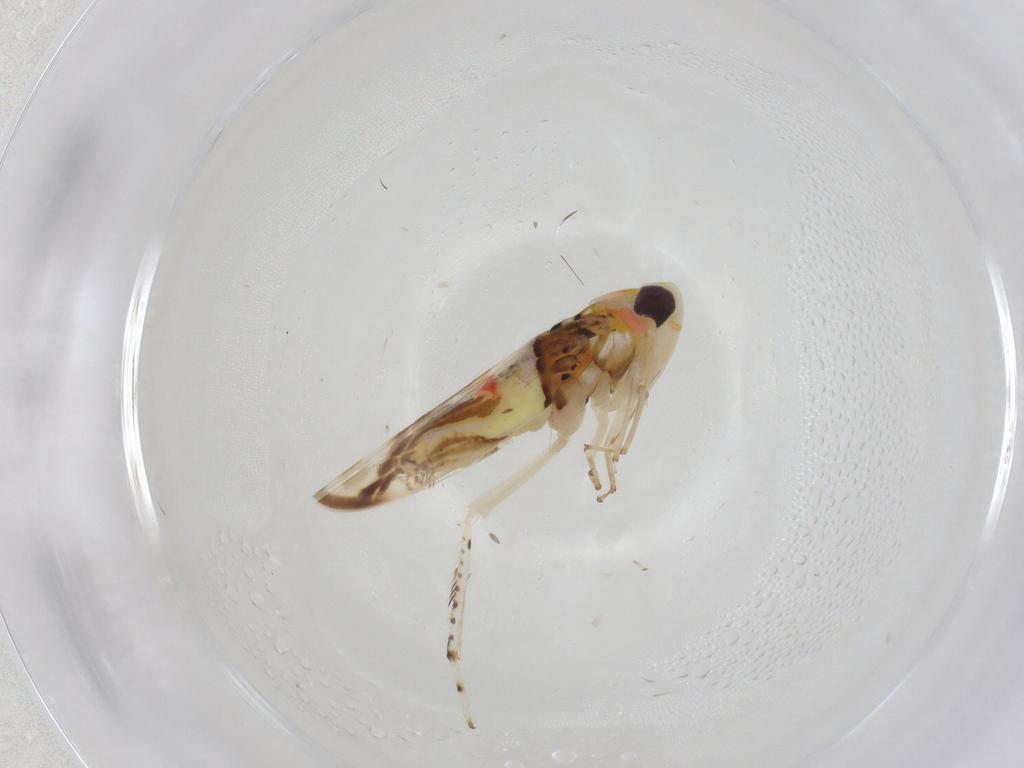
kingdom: Animalia
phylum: Arthropoda
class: Insecta
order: Hemiptera
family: Cicadellidae
